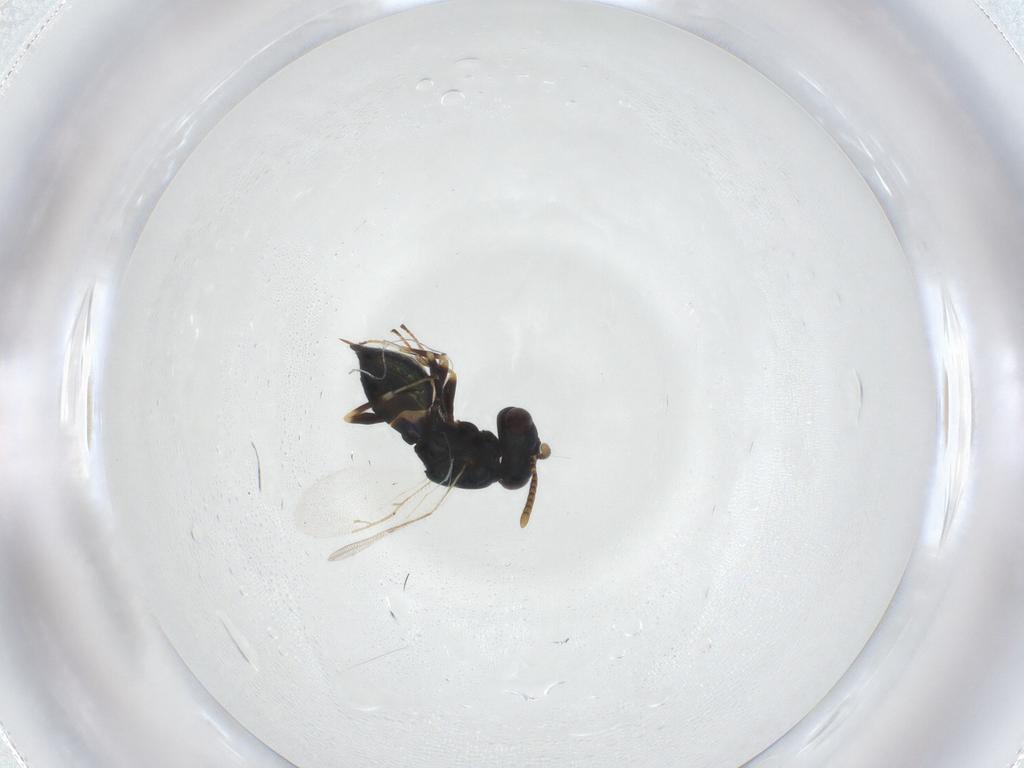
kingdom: Animalia
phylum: Arthropoda
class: Insecta
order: Hymenoptera
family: Pteromalidae
